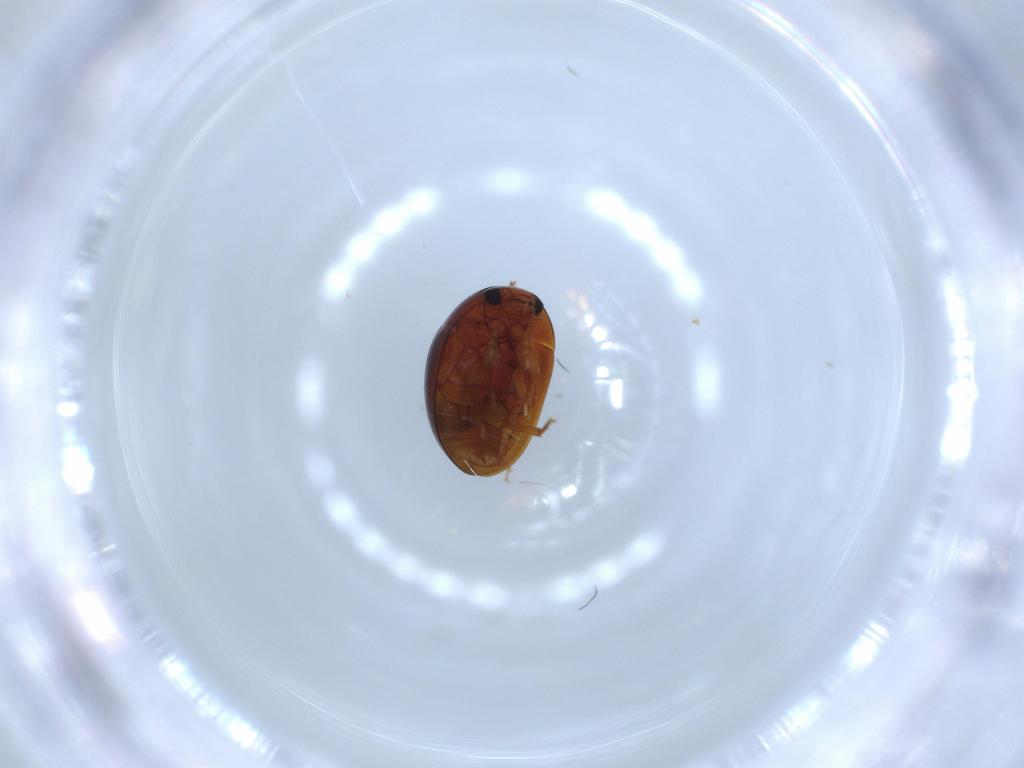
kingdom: Animalia
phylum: Arthropoda
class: Insecta
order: Coleoptera
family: Phalacridae
